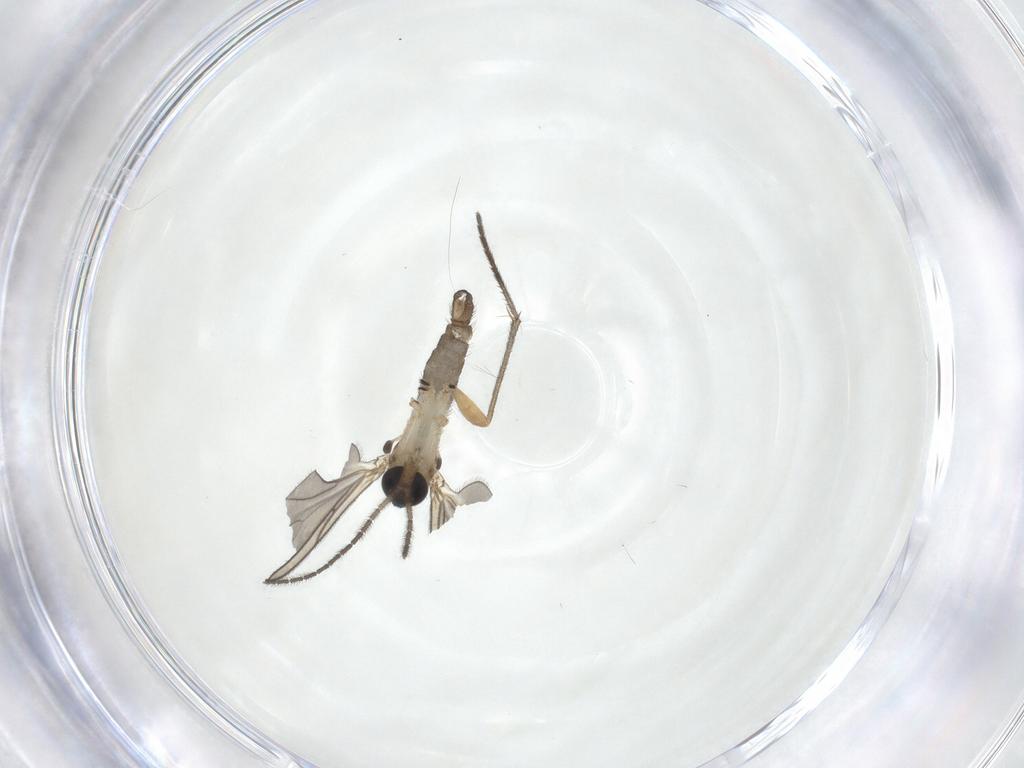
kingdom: Animalia
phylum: Arthropoda
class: Insecta
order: Diptera
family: Sciaridae
